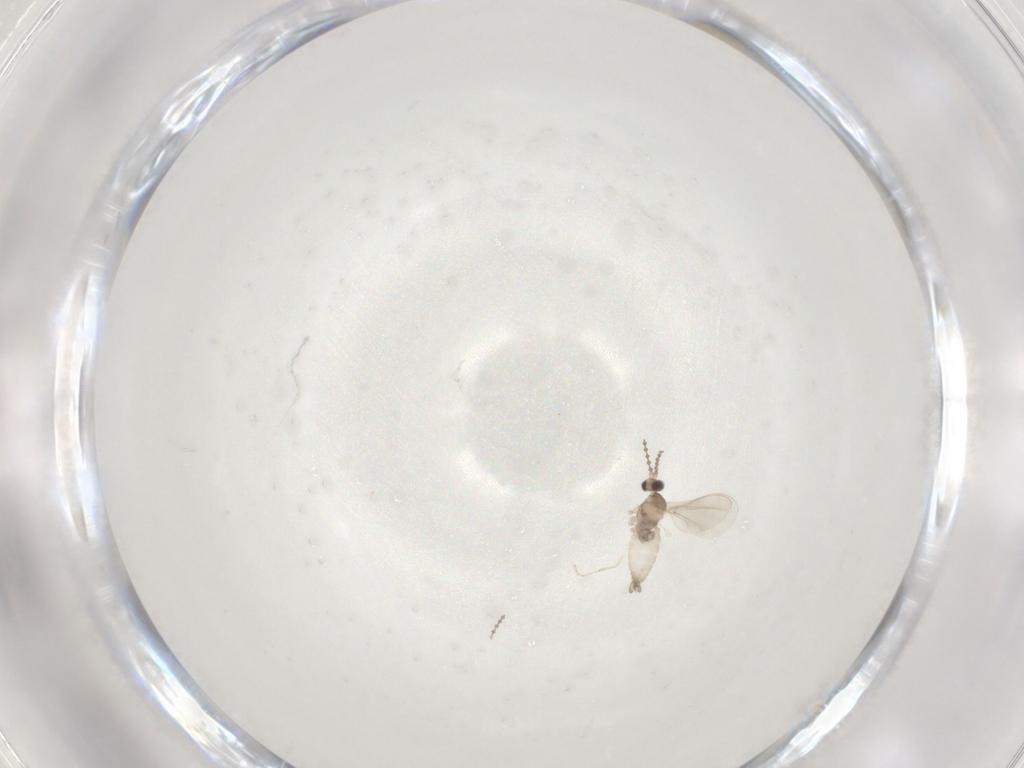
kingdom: Animalia
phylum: Arthropoda
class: Insecta
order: Diptera
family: Cecidomyiidae
